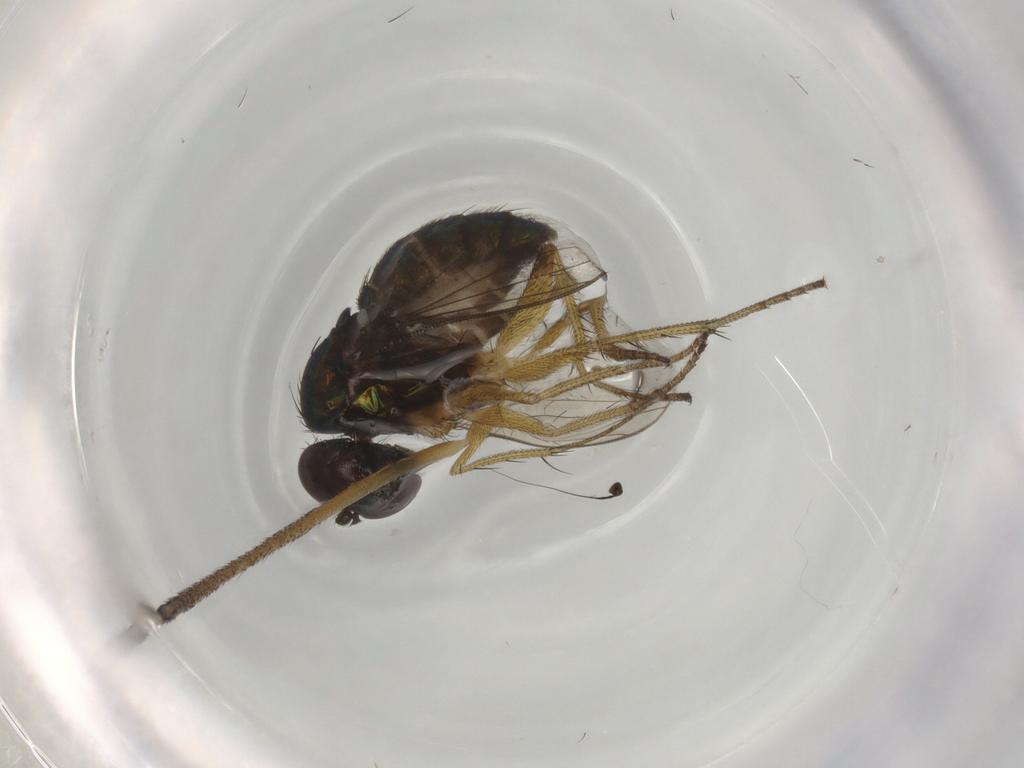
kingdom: Animalia
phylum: Arthropoda
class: Insecta
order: Diptera
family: Dolichopodidae
